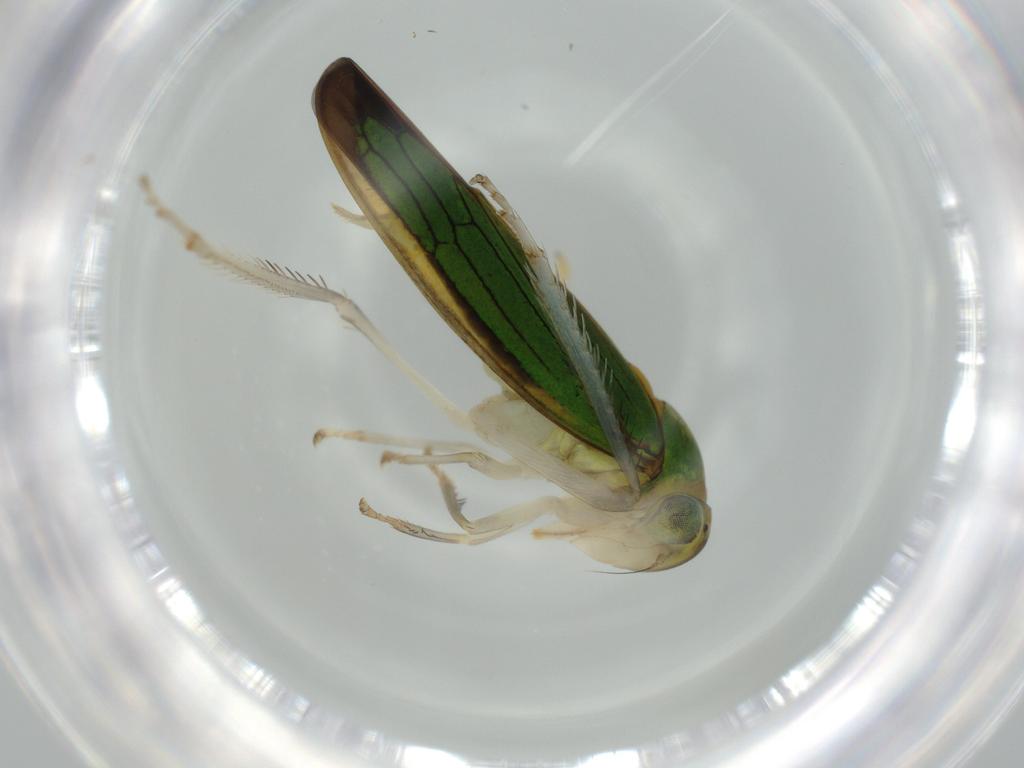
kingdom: Animalia
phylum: Arthropoda
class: Insecta
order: Hemiptera
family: Cicadellidae
